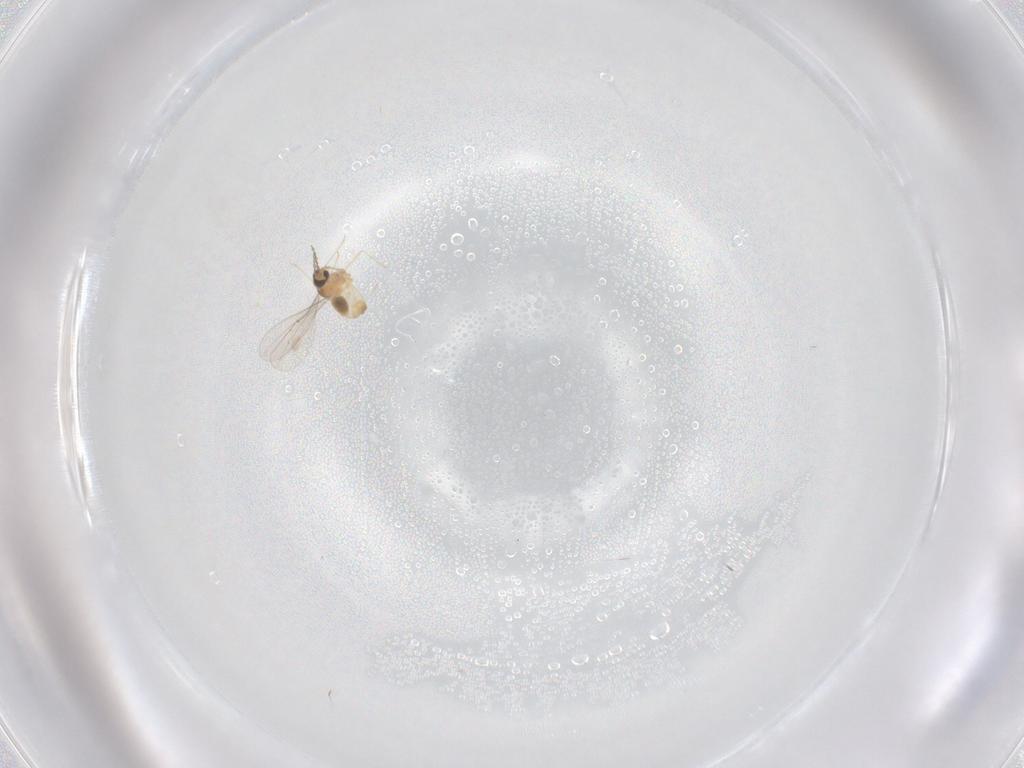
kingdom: Animalia
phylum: Arthropoda
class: Insecta
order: Diptera
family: Cecidomyiidae
